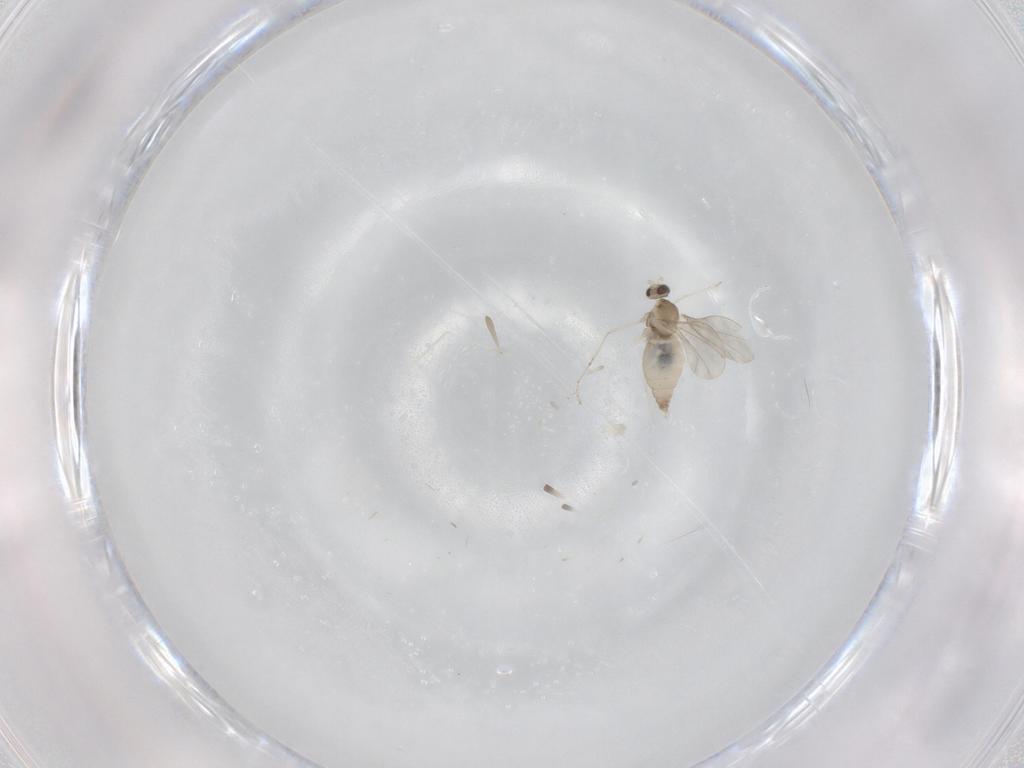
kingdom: Animalia
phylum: Arthropoda
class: Insecta
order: Diptera
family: Cecidomyiidae
